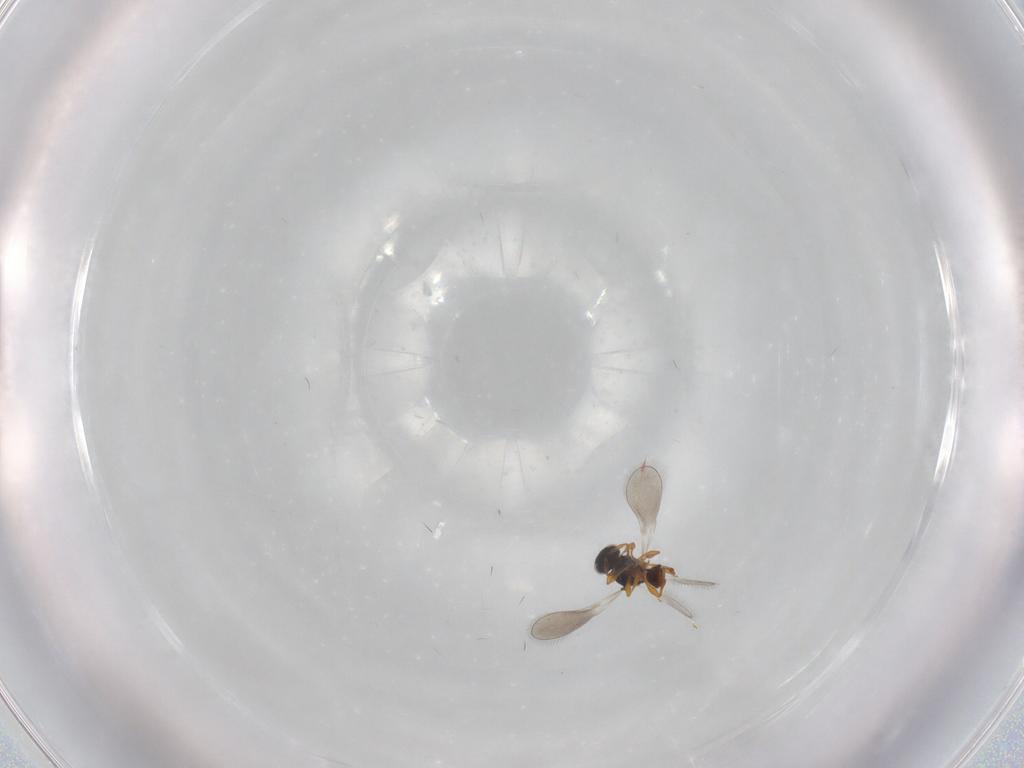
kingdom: Animalia
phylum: Arthropoda
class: Insecta
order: Hymenoptera
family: Platygastridae
